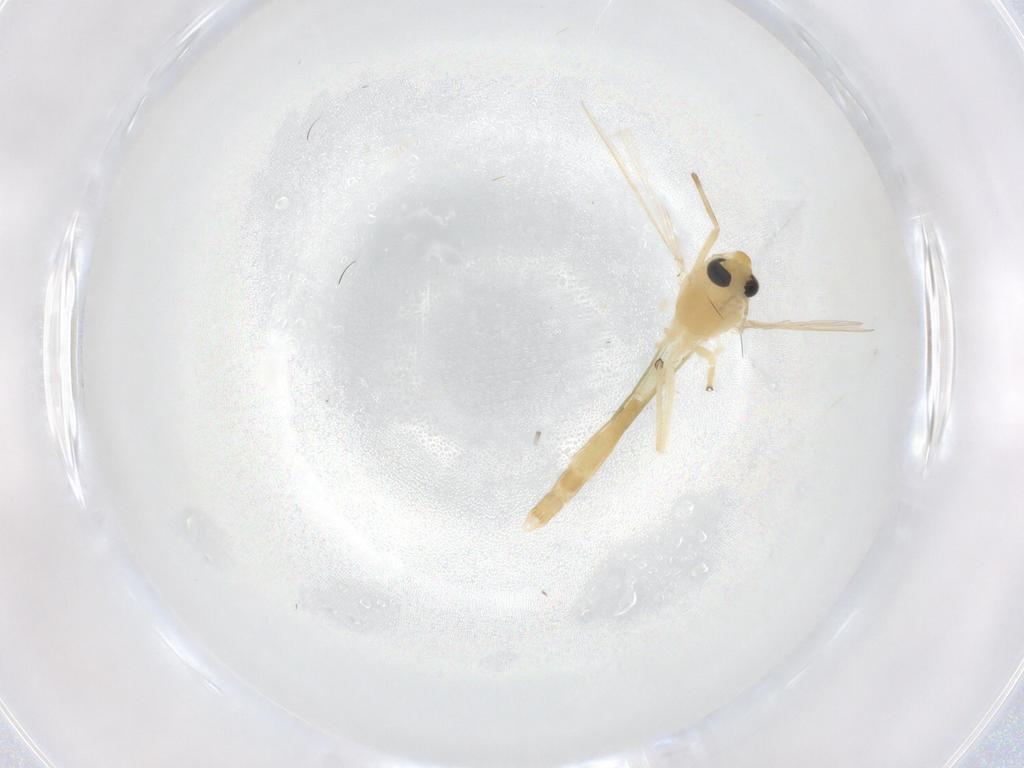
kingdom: Animalia
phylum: Arthropoda
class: Insecta
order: Diptera
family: Chironomidae
